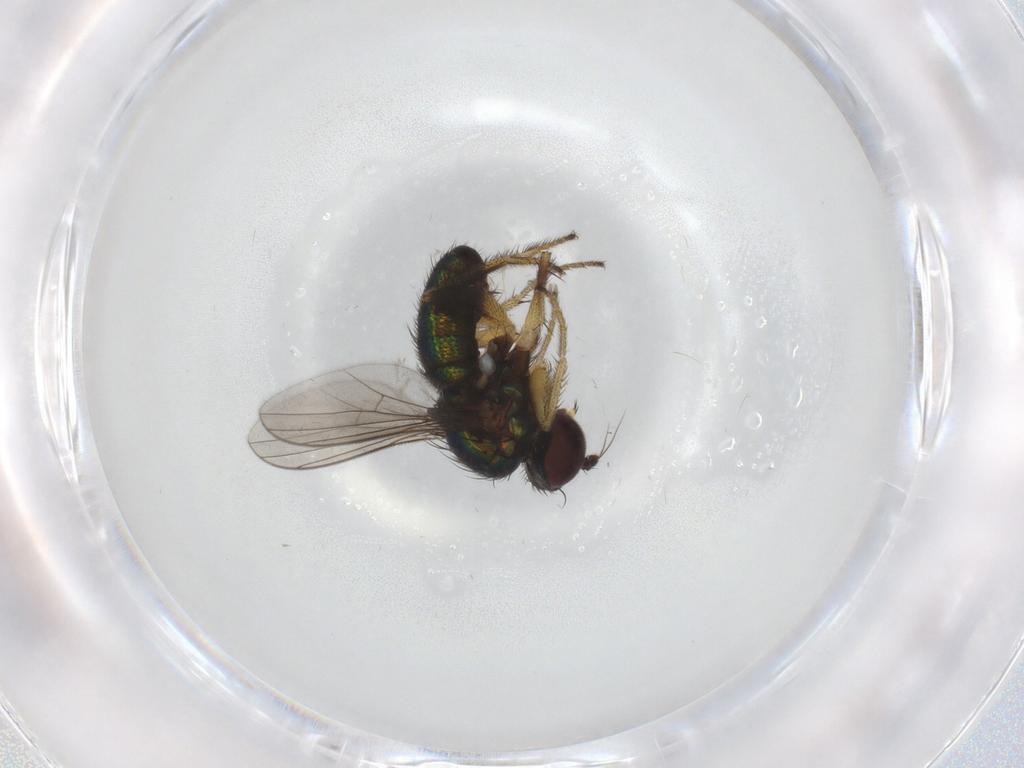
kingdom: Animalia
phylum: Arthropoda
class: Insecta
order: Diptera
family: Dolichopodidae
